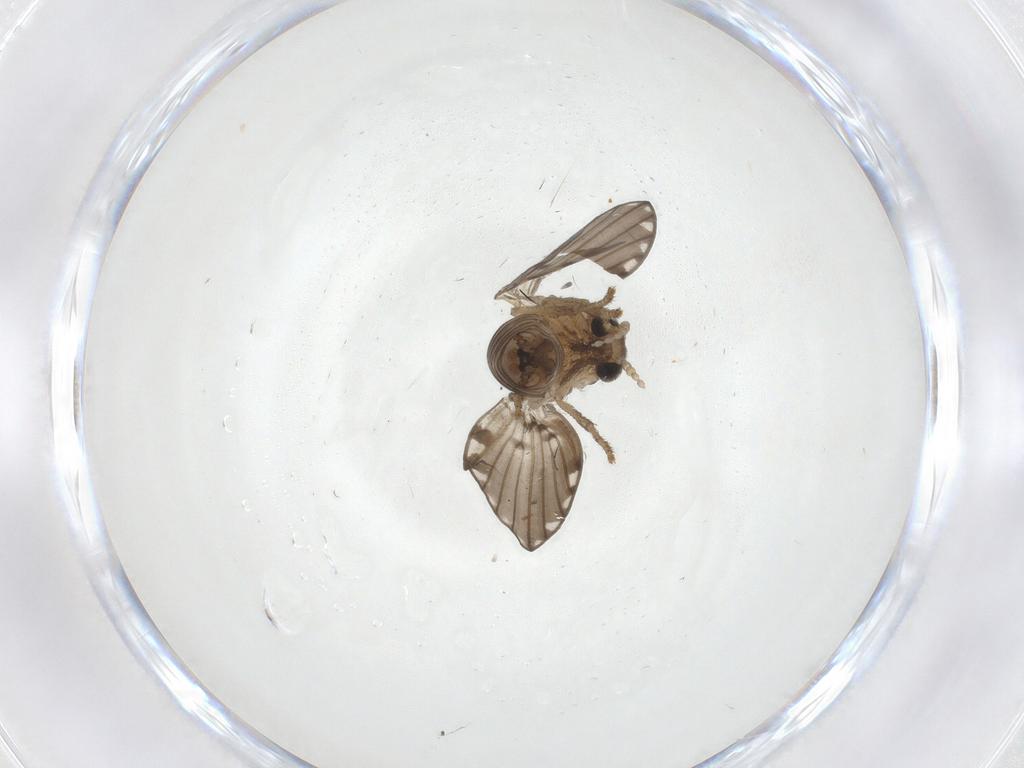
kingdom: Animalia
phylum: Arthropoda
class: Insecta
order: Diptera
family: Psychodidae
